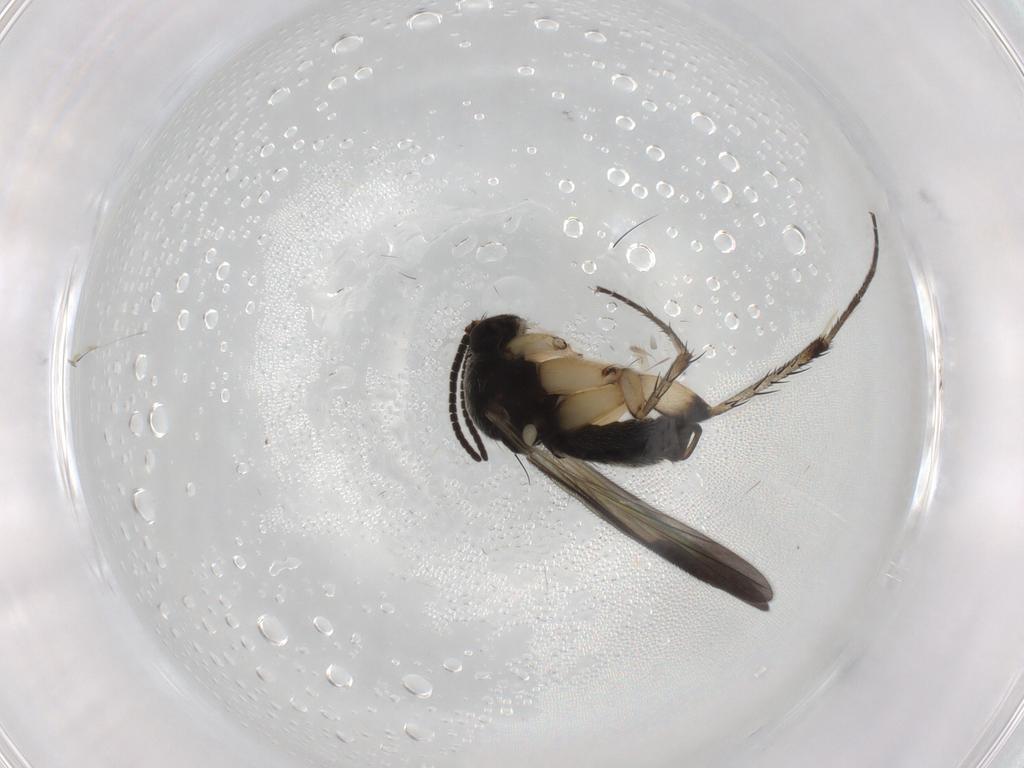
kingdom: Animalia
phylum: Arthropoda
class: Insecta
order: Diptera
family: Mycetophilidae
